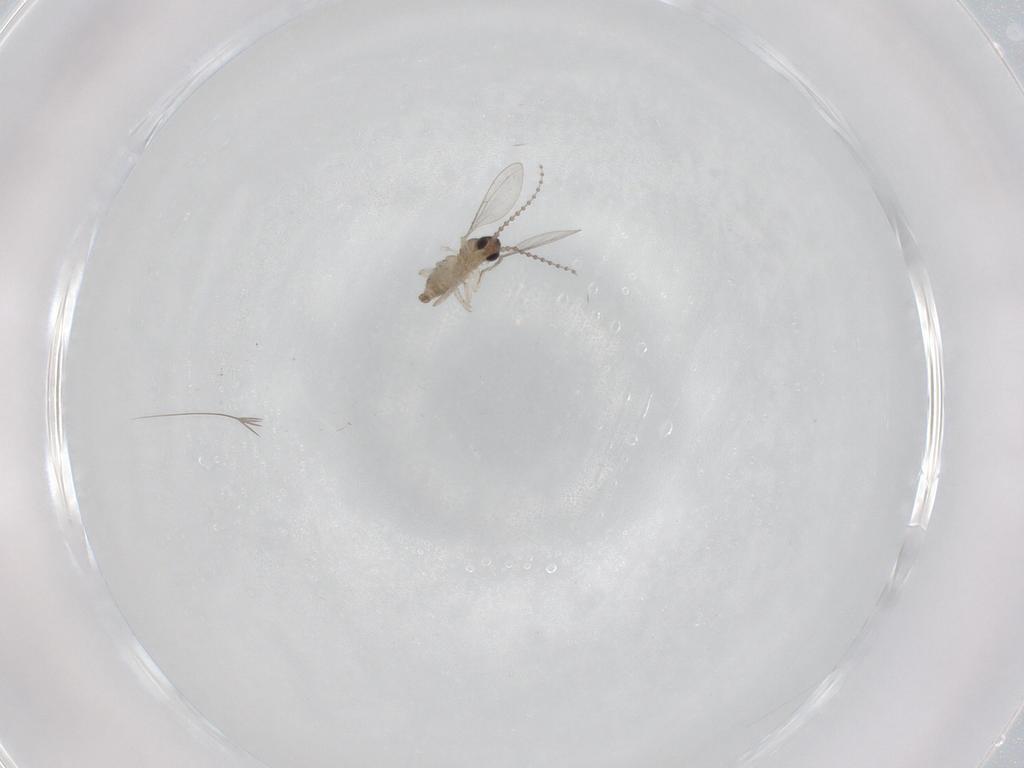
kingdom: Animalia
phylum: Arthropoda
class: Insecta
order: Diptera
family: Cecidomyiidae
